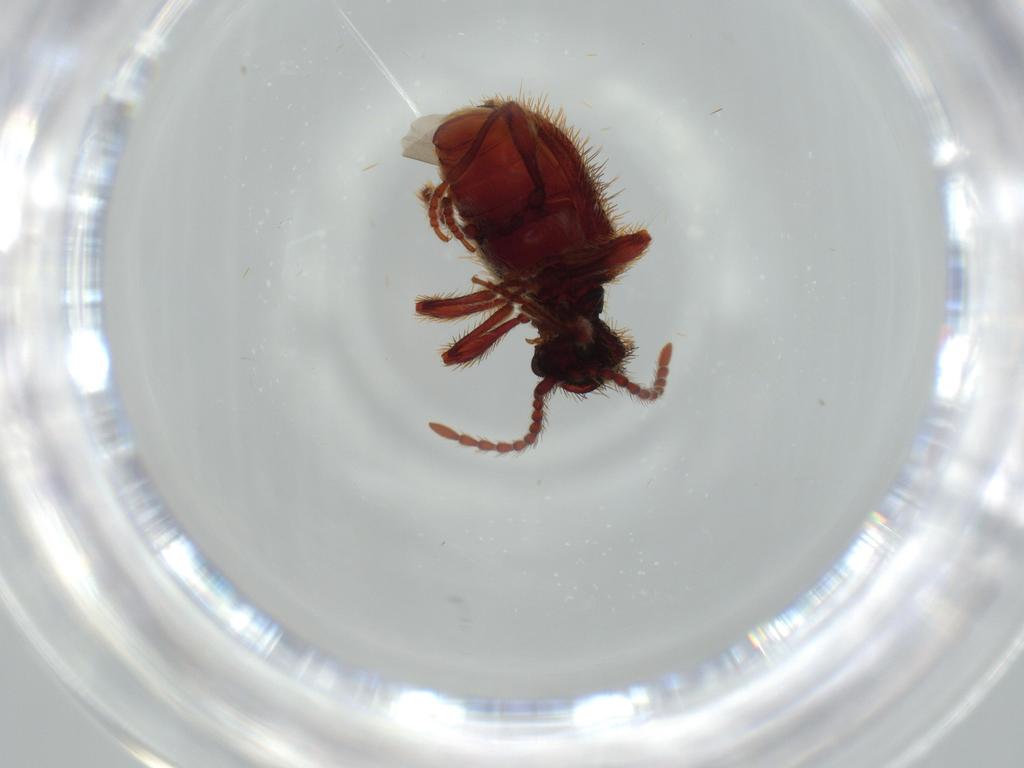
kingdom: Animalia
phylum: Arthropoda
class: Insecta
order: Coleoptera
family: Ptinidae
